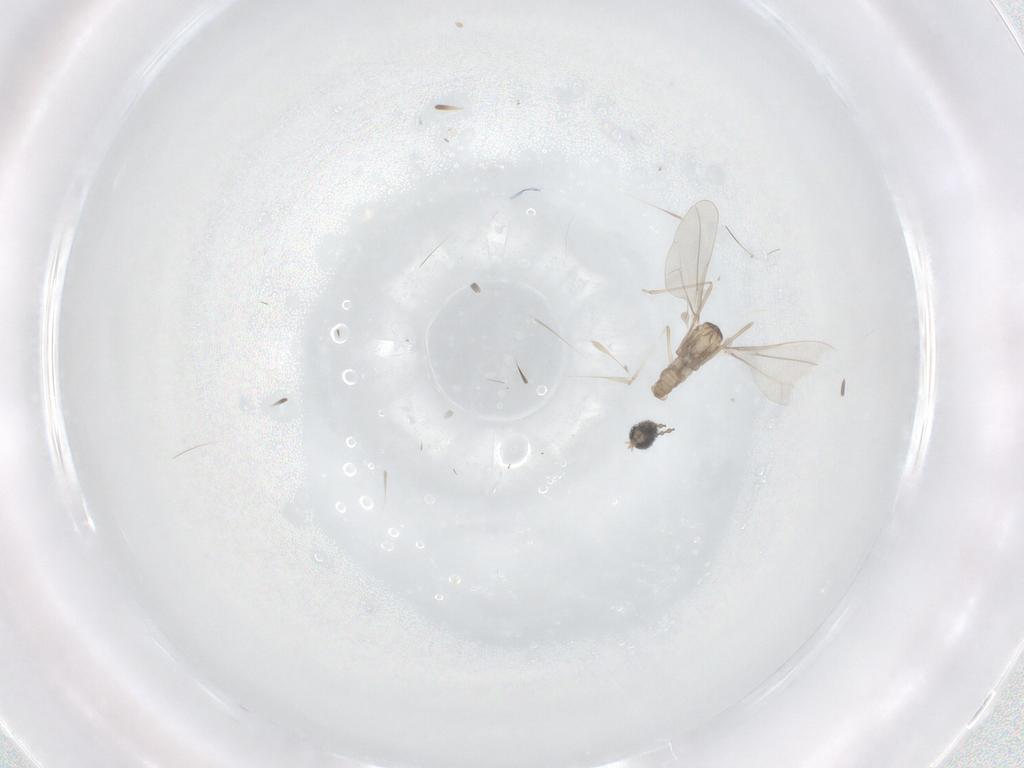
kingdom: Animalia
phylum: Arthropoda
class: Insecta
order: Diptera
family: Cecidomyiidae
